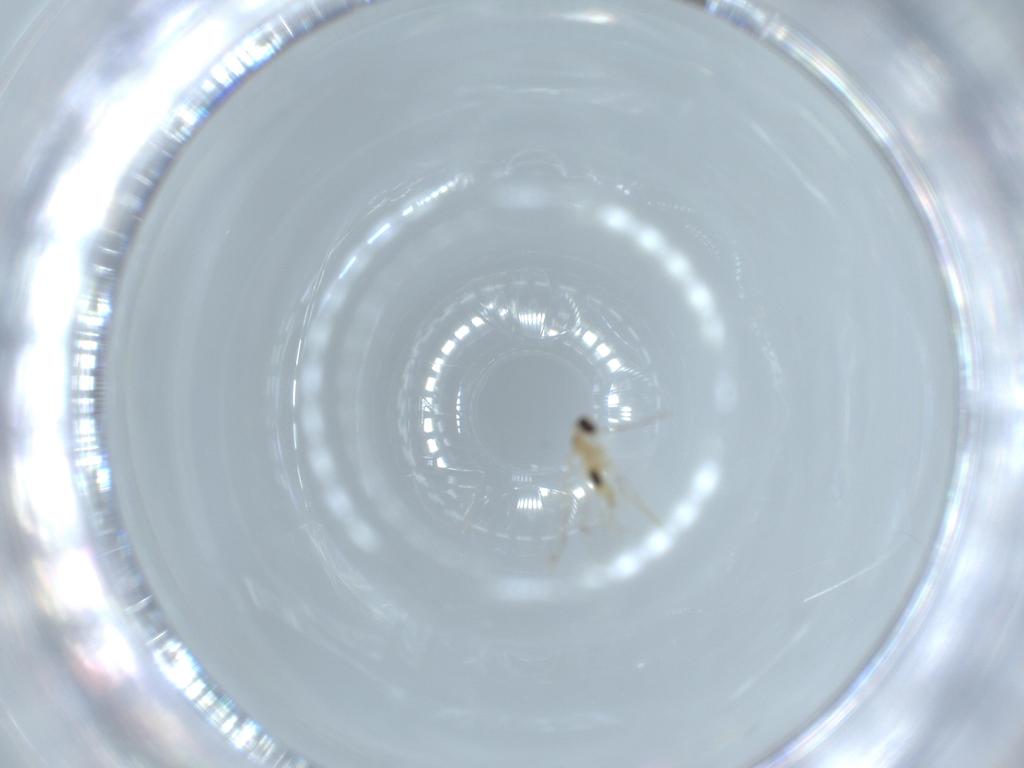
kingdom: Animalia
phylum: Arthropoda
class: Insecta
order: Diptera
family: Cecidomyiidae
